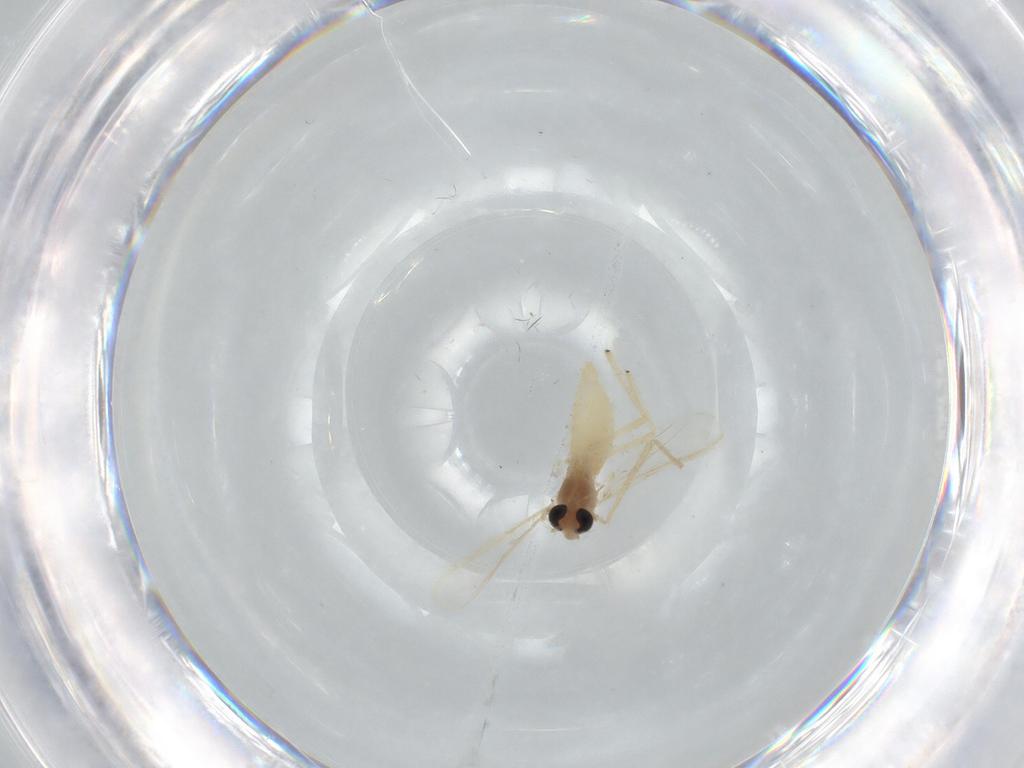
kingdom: Animalia
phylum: Arthropoda
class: Insecta
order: Diptera
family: Chironomidae
